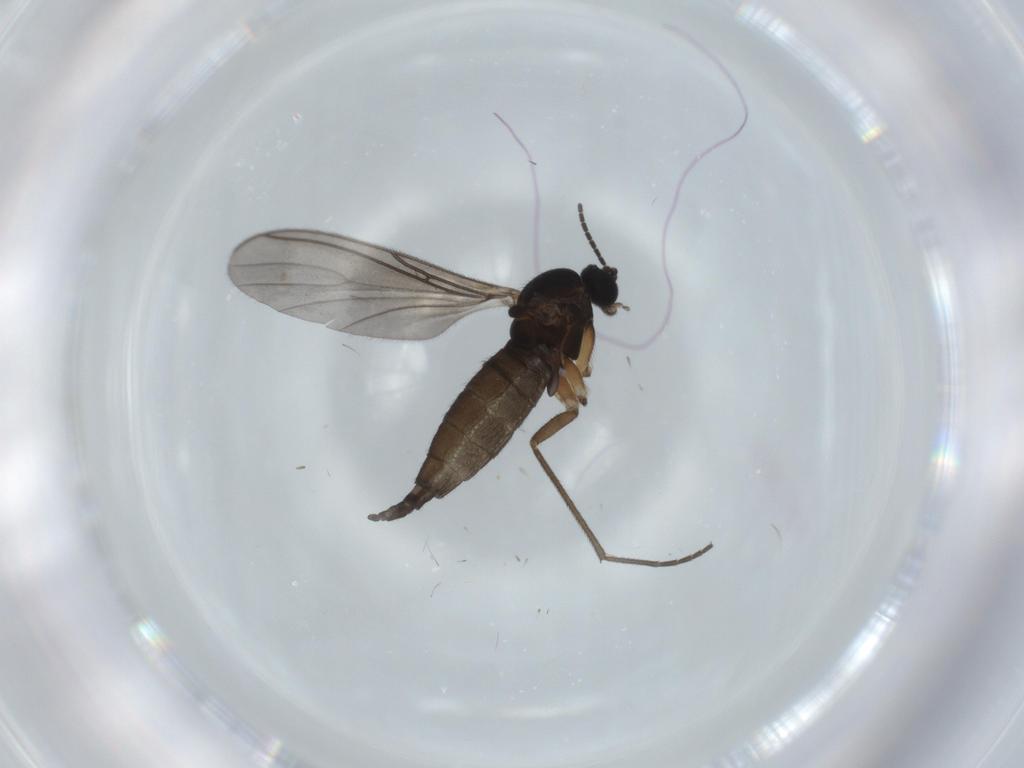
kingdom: Animalia
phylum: Arthropoda
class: Insecta
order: Diptera
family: Sciaridae
